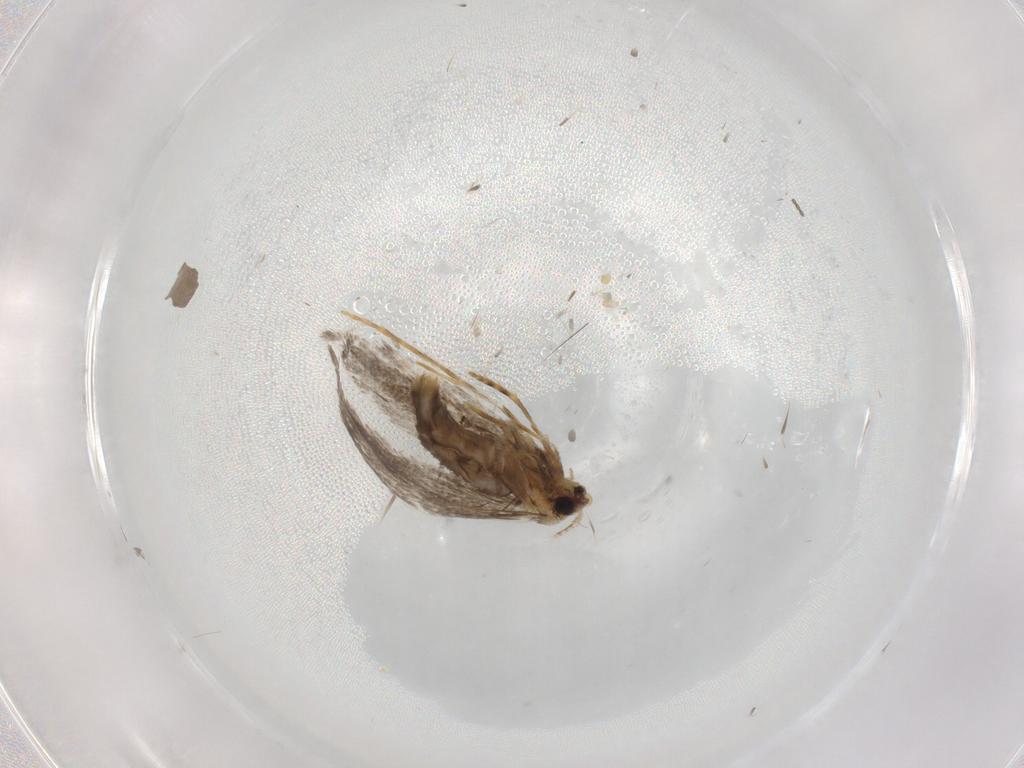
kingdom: Animalia
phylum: Arthropoda
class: Insecta
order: Lepidoptera
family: Tineidae
